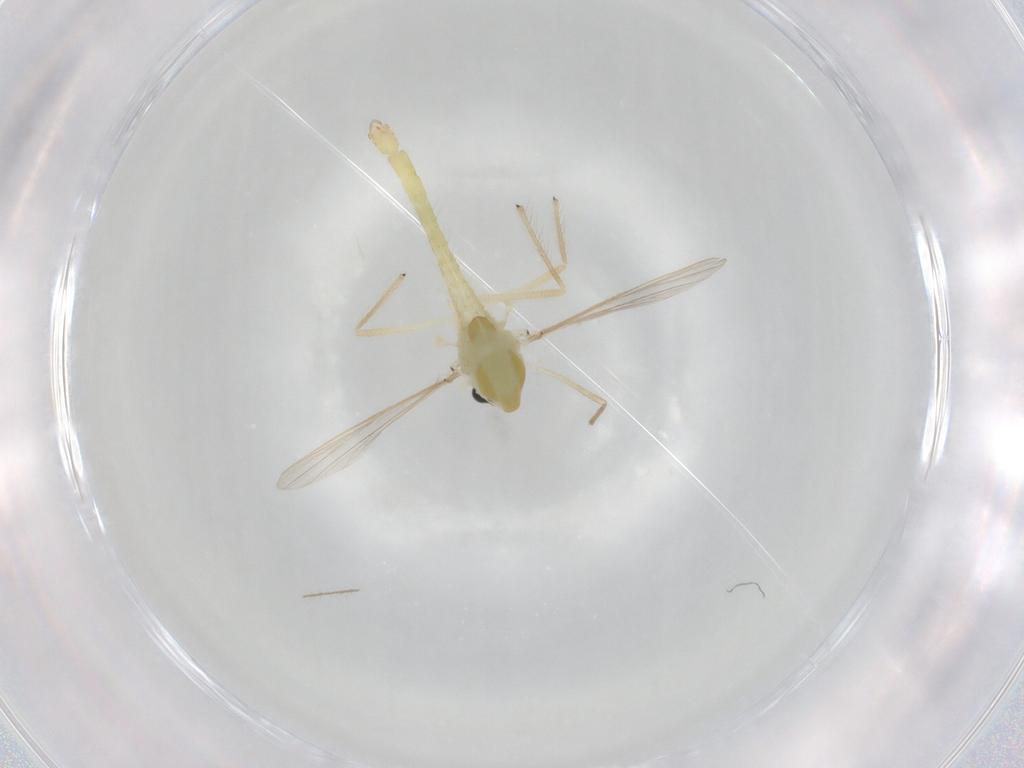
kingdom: Animalia
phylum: Arthropoda
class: Insecta
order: Diptera
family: Chironomidae
